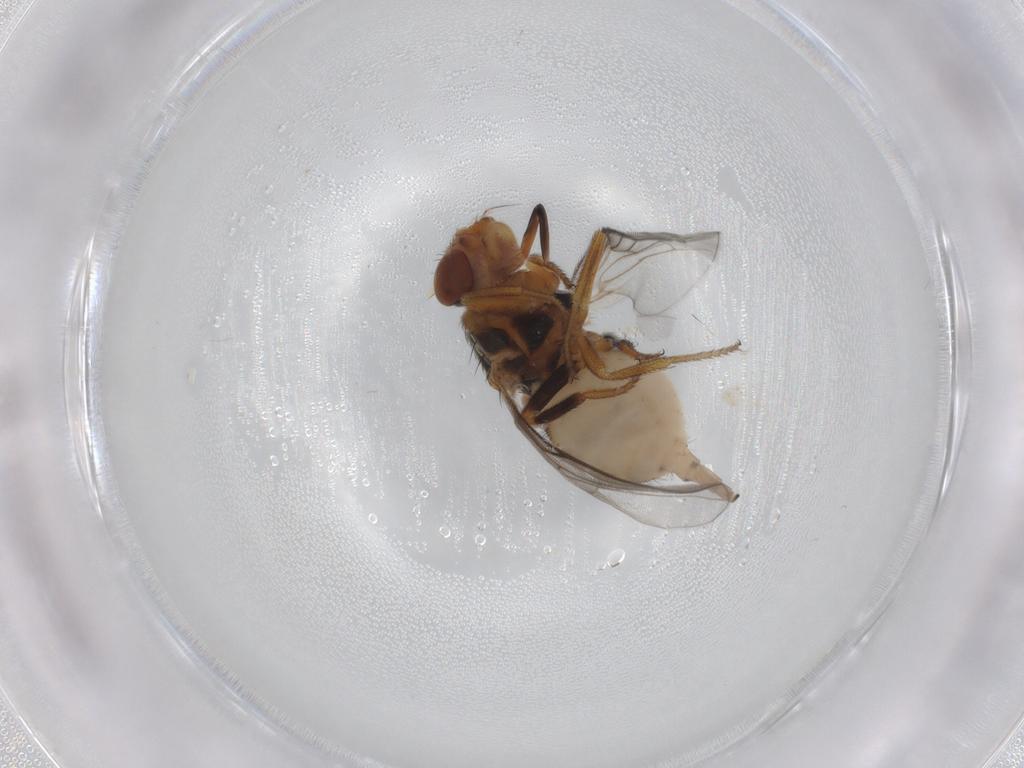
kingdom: Animalia
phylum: Arthropoda
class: Insecta
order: Diptera
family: Chloropidae
